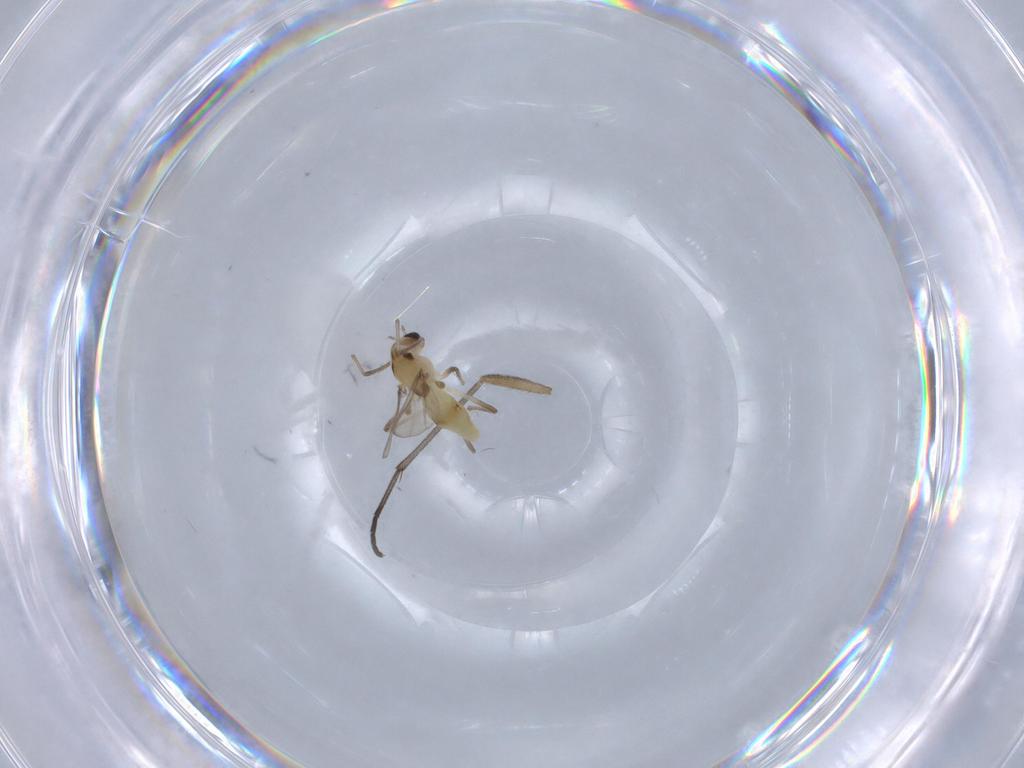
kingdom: Animalia
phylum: Arthropoda
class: Insecta
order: Diptera
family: Chironomidae
